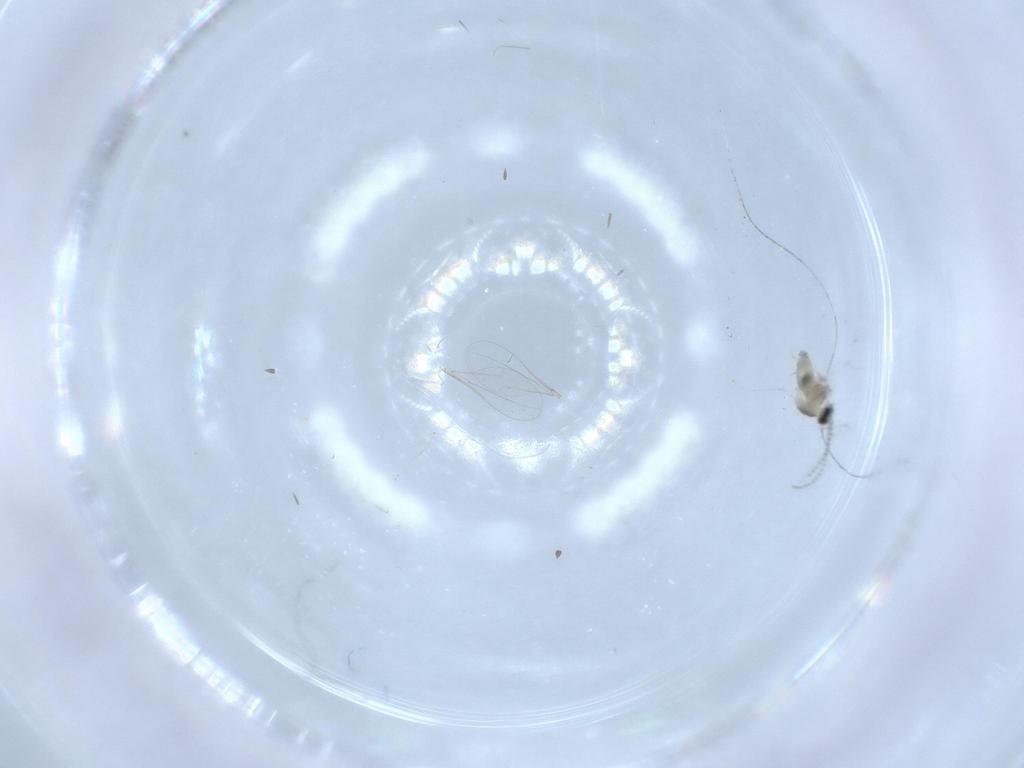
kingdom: Animalia
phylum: Arthropoda
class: Insecta
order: Diptera
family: Cecidomyiidae
